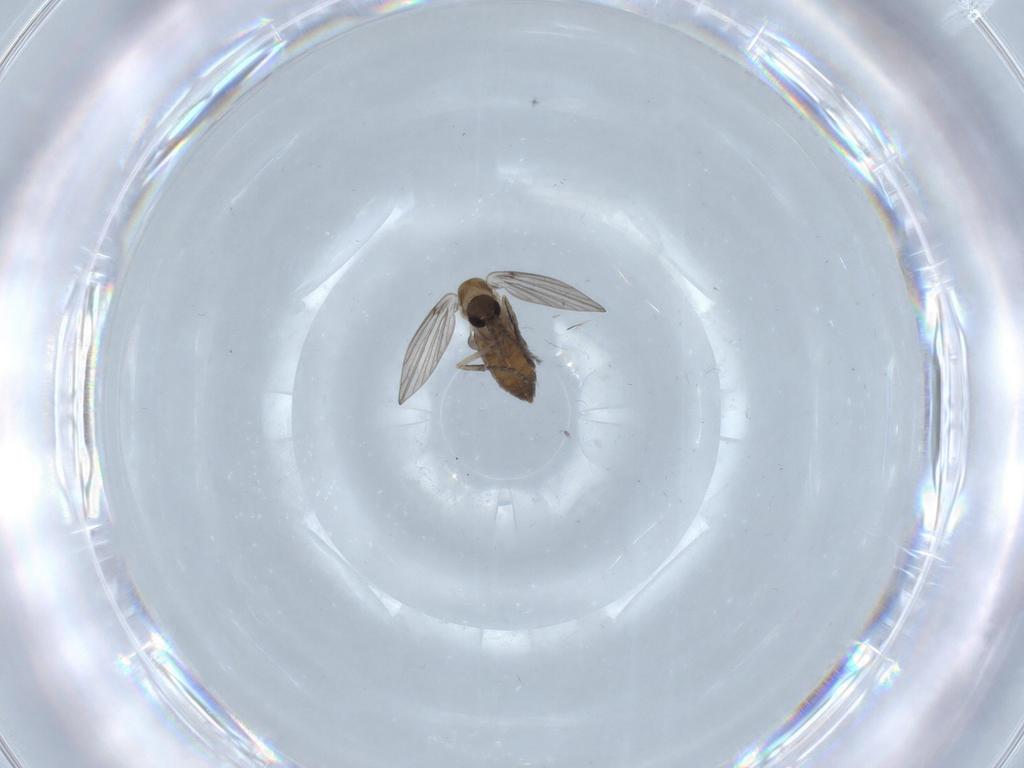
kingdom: Animalia
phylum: Arthropoda
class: Insecta
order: Diptera
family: Psychodidae
